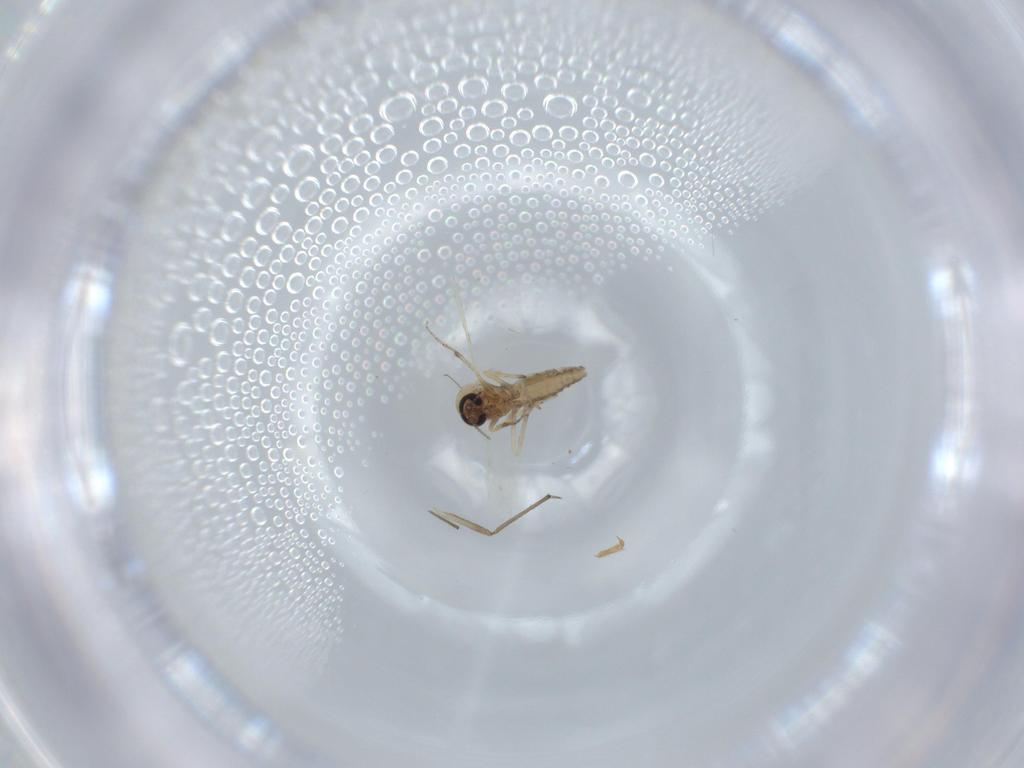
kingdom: Animalia
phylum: Arthropoda
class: Insecta
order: Diptera
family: Chironomidae
